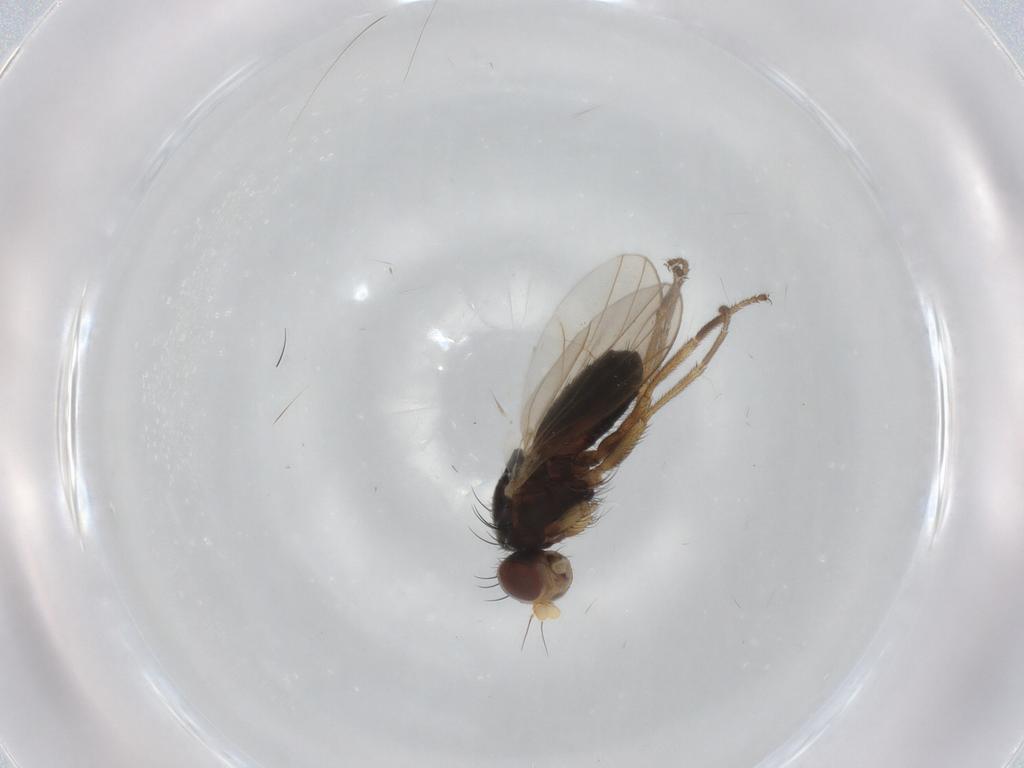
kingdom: Animalia
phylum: Arthropoda
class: Insecta
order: Diptera
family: Heleomyzidae
